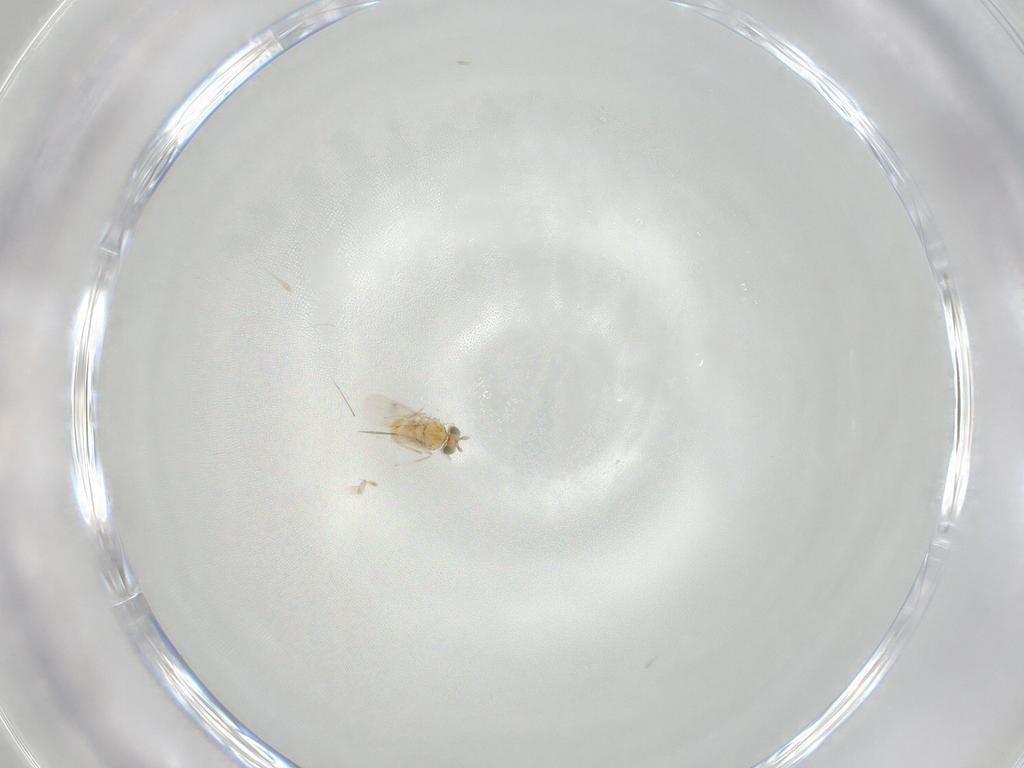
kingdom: Animalia
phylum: Arthropoda
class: Insecta
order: Hymenoptera
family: Aphelinidae
